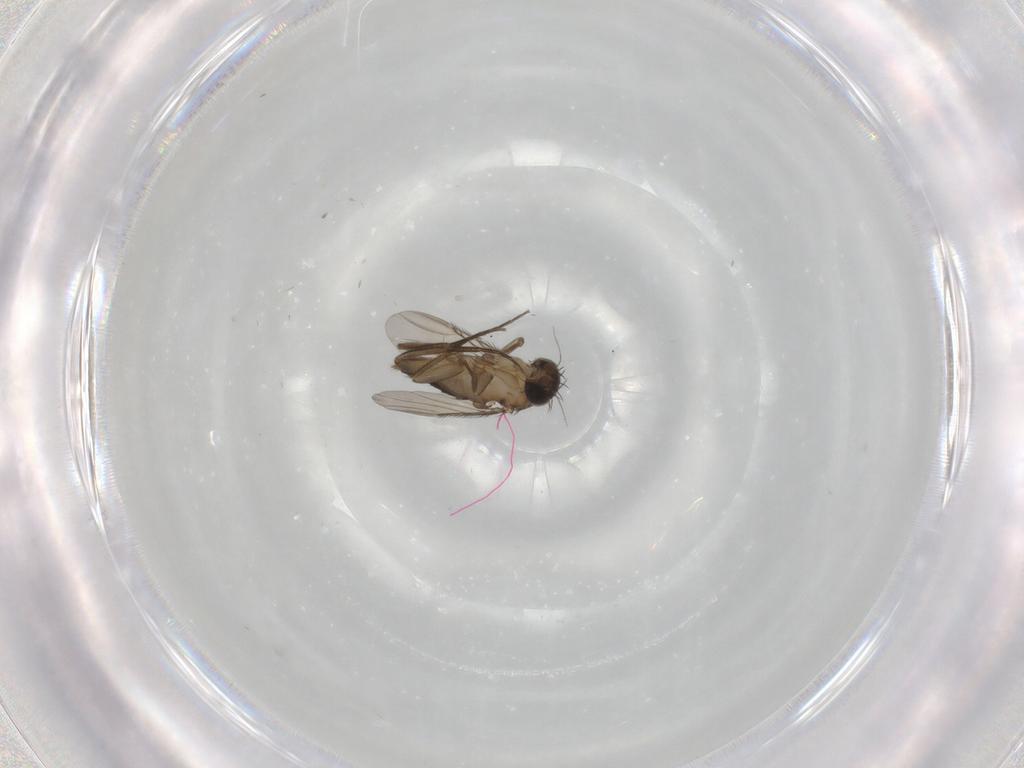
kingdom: Animalia
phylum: Arthropoda
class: Insecta
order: Diptera
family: Phoridae
